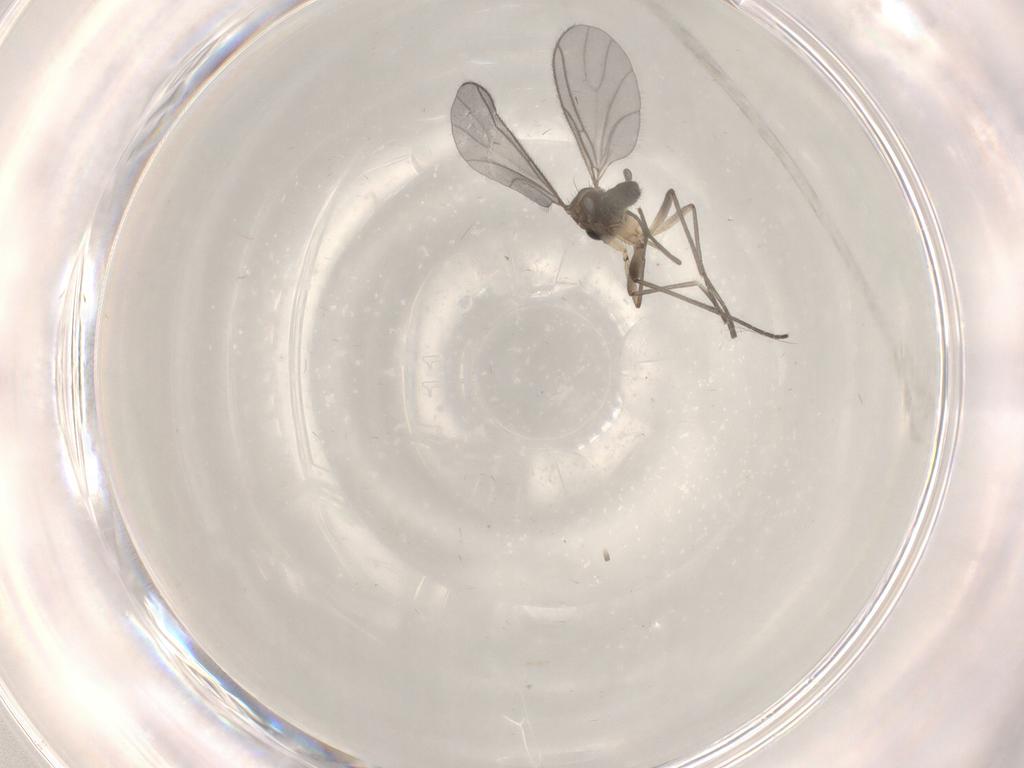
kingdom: Animalia
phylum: Arthropoda
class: Insecta
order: Diptera
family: Sciaridae
